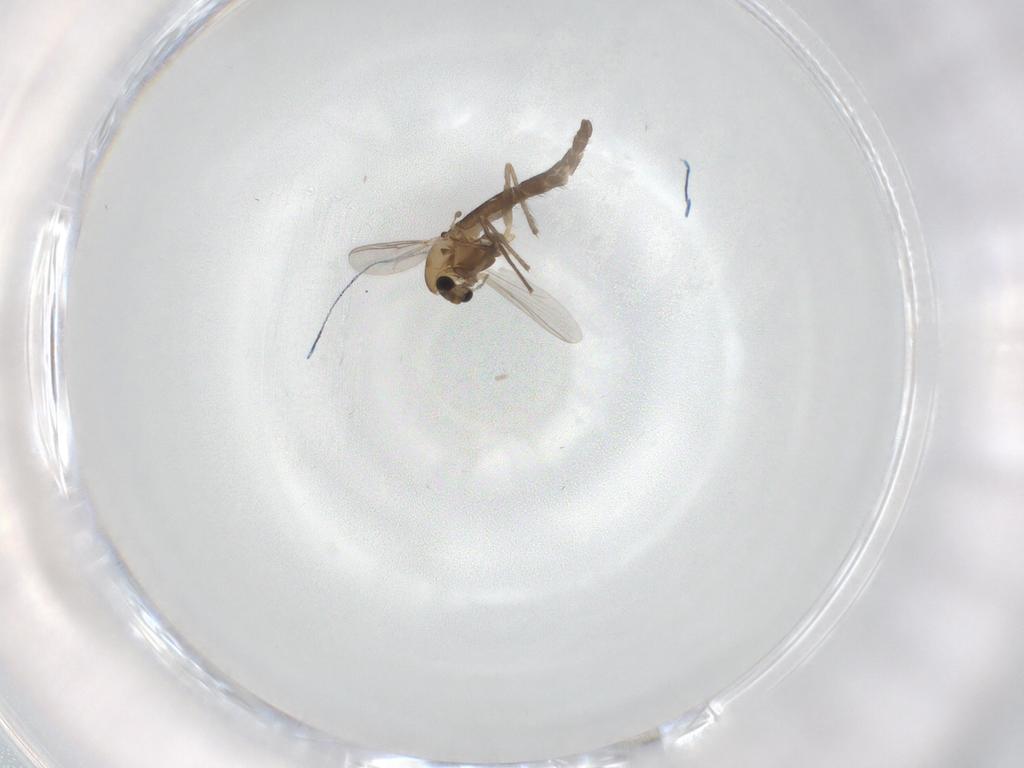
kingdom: Animalia
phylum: Arthropoda
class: Insecta
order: Diptera
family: Chironomidae
